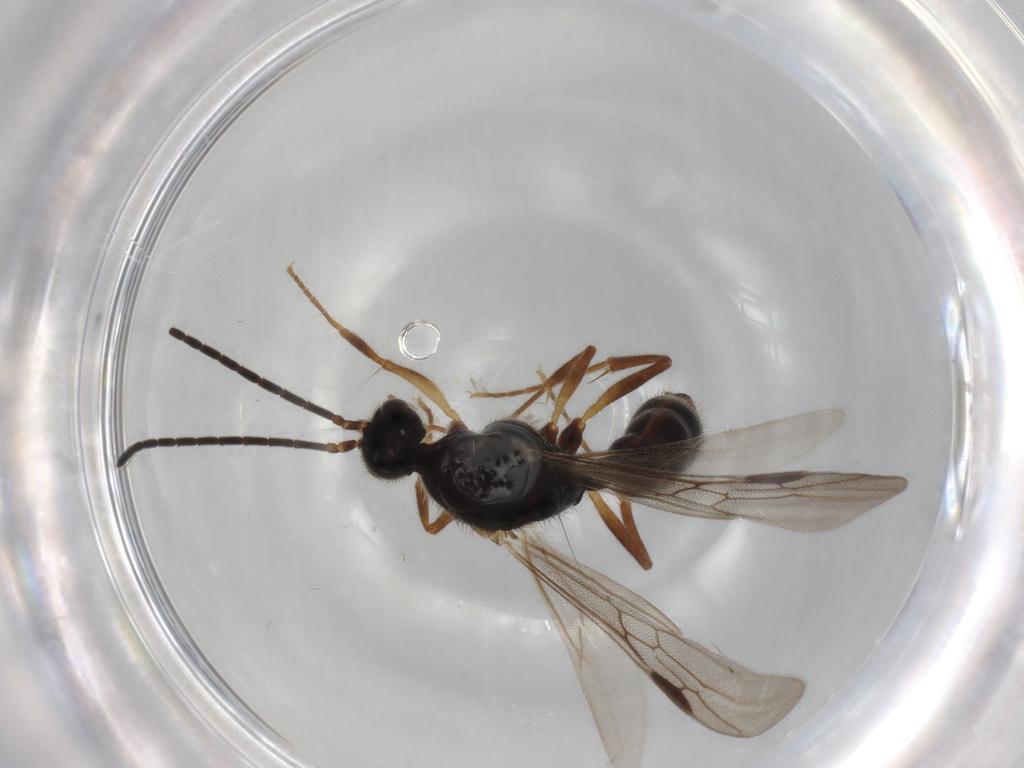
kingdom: Animalia
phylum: Arthropoda
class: Insecta
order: Hymenoptera
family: Formicidae
